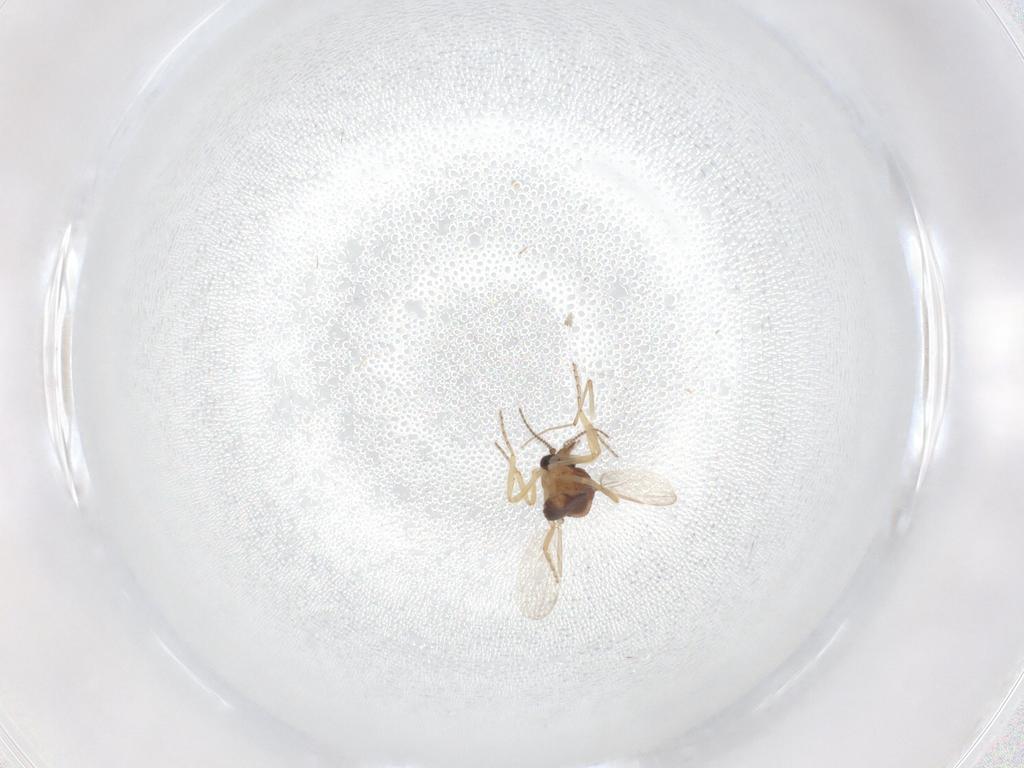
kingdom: Animalia
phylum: Arthropoda
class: Insecta
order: Diptera
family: Ceratopogonidae
